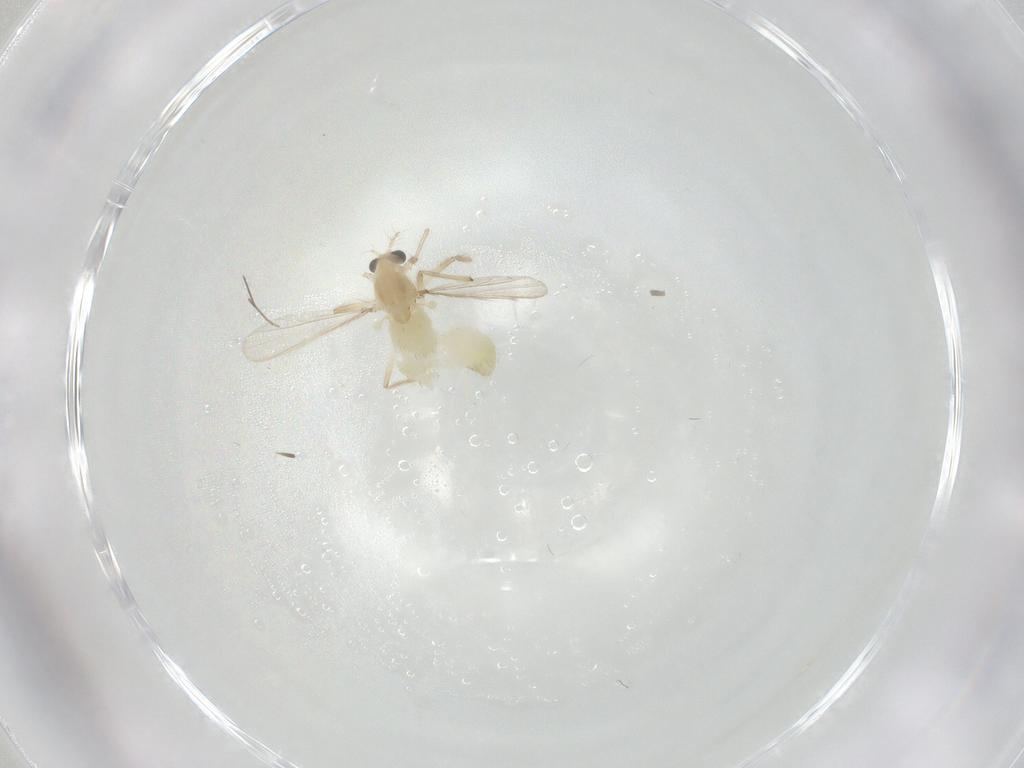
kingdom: Animalia
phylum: Arthropoda
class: Insecta
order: Diptera
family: Chironomidae
